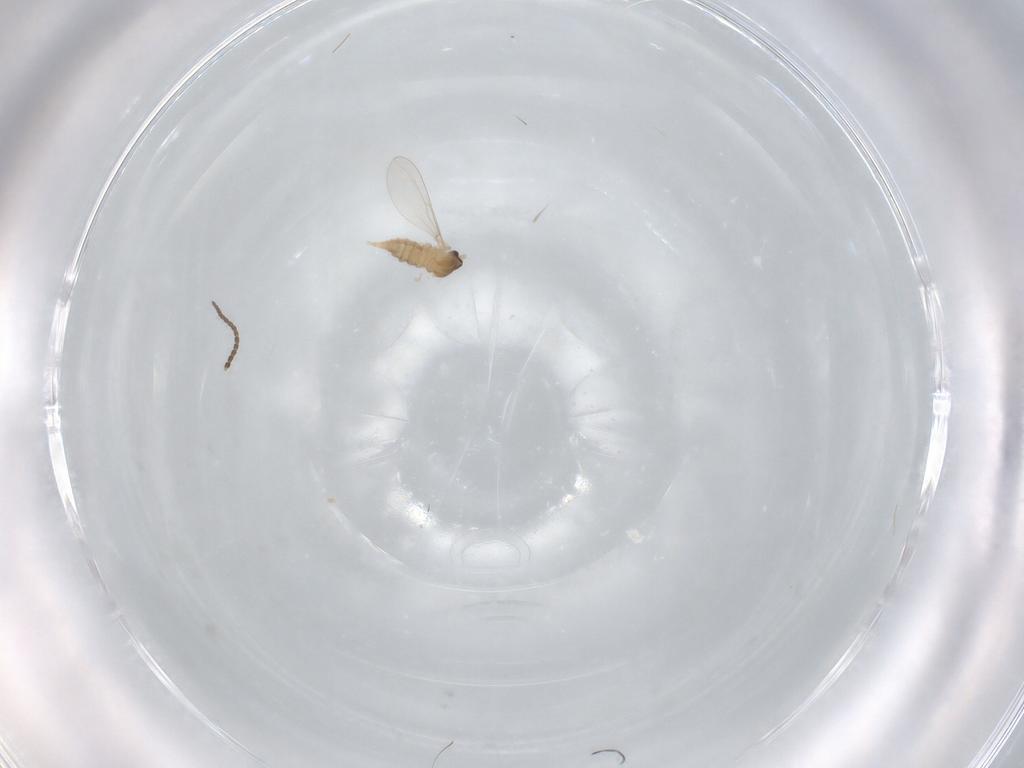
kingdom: Animalia
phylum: Arthropoda
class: Insecta
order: Diptera
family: Cecidomyiidae
